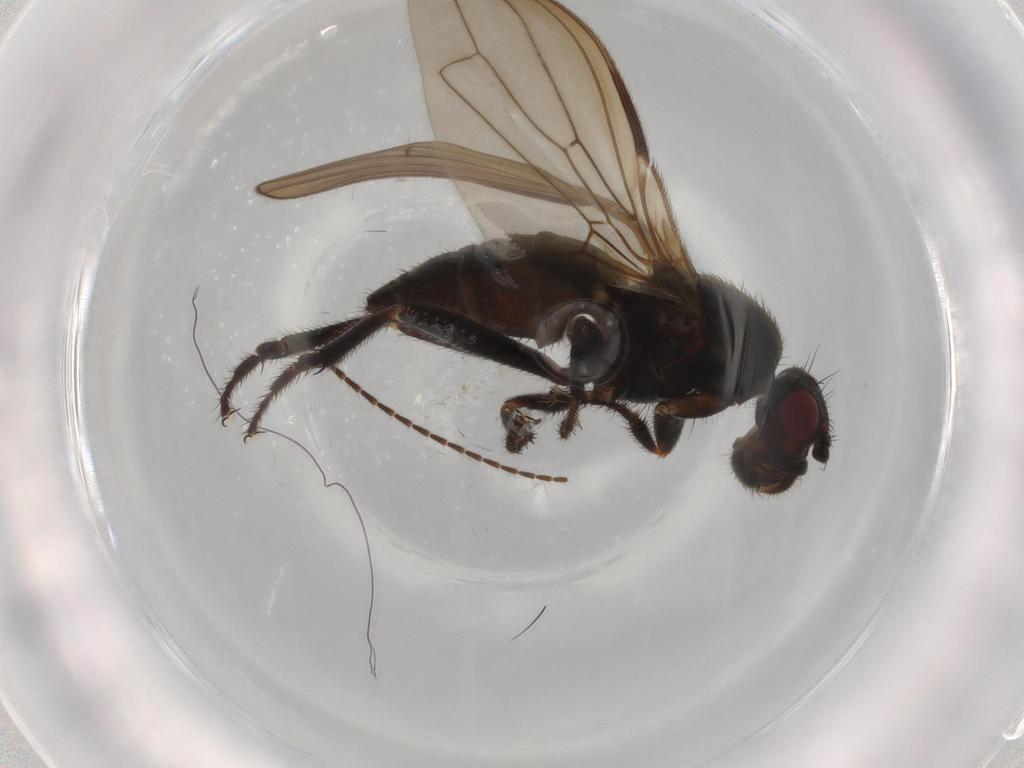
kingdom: Animalia
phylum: Arthropoda
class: Insecta
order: Diptera
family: Sphaeroceridae
